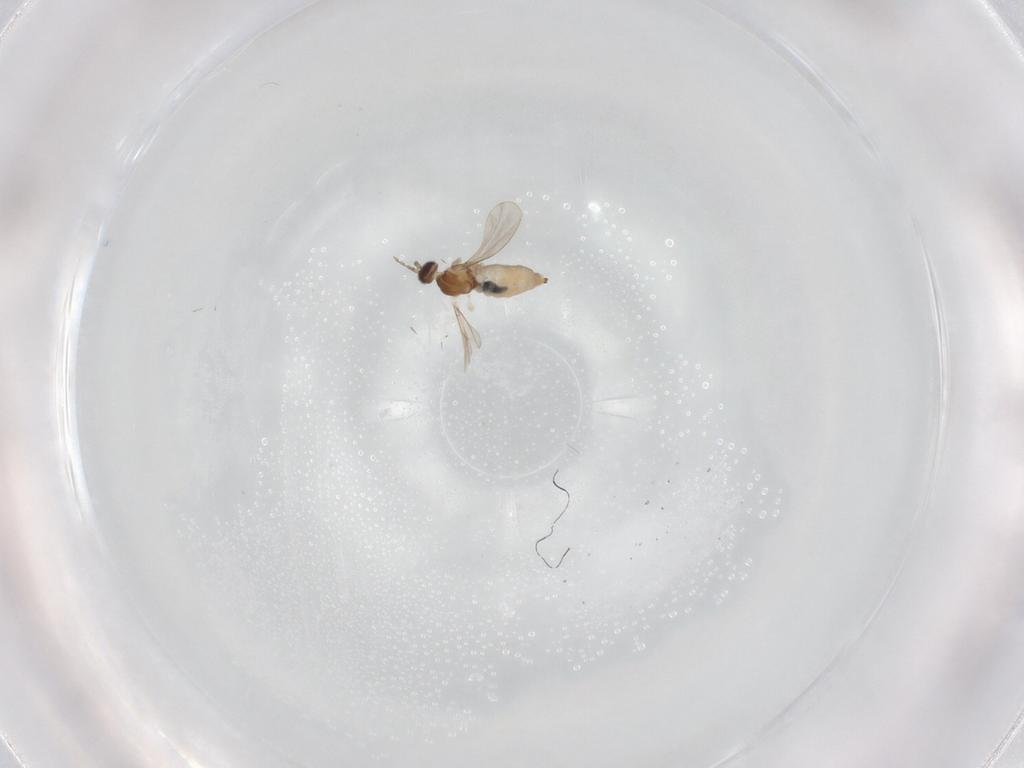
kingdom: Animalia
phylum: Arthropoda
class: Insecta
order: Diptera
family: Cecidomyiidae
